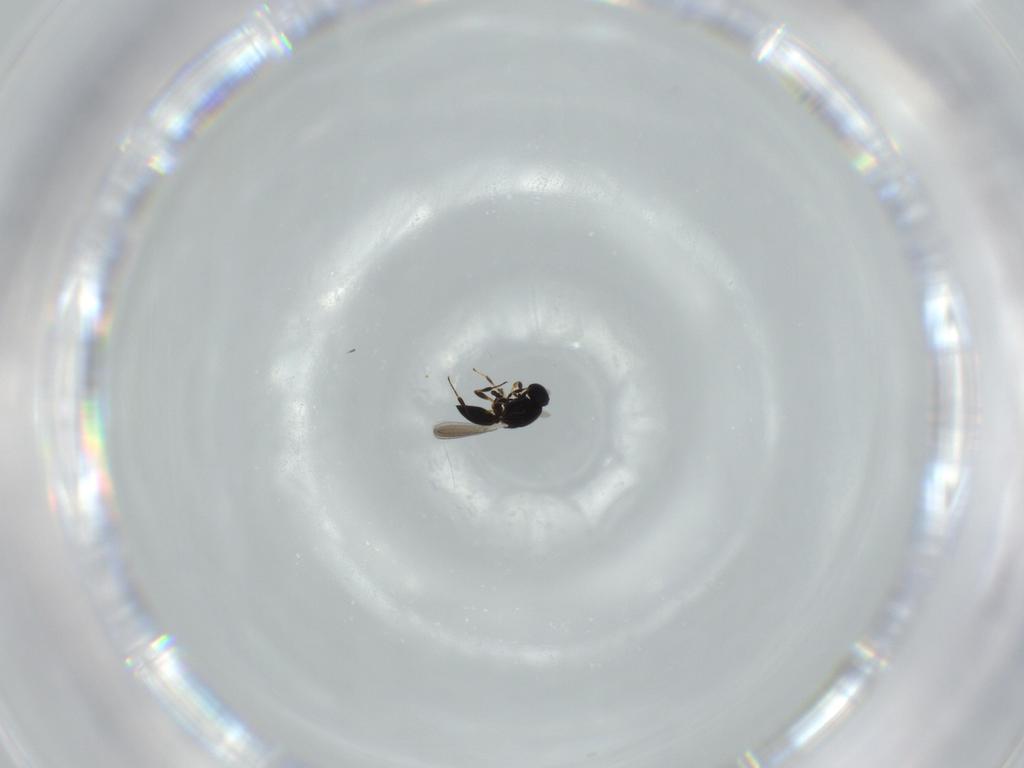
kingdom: Animalia
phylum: Arthropoda
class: Insecta
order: Hymenoptera
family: Platygastridae
